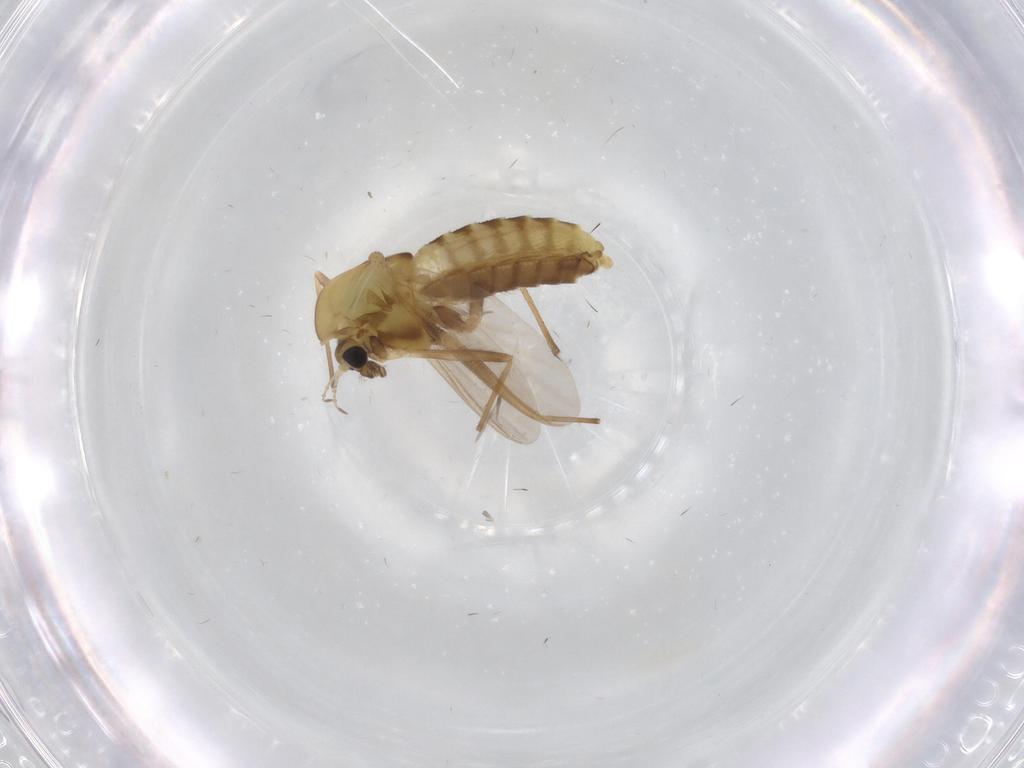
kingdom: Animalia
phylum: Arthropoda
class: Insecta
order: Diptera
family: Chironomidae
